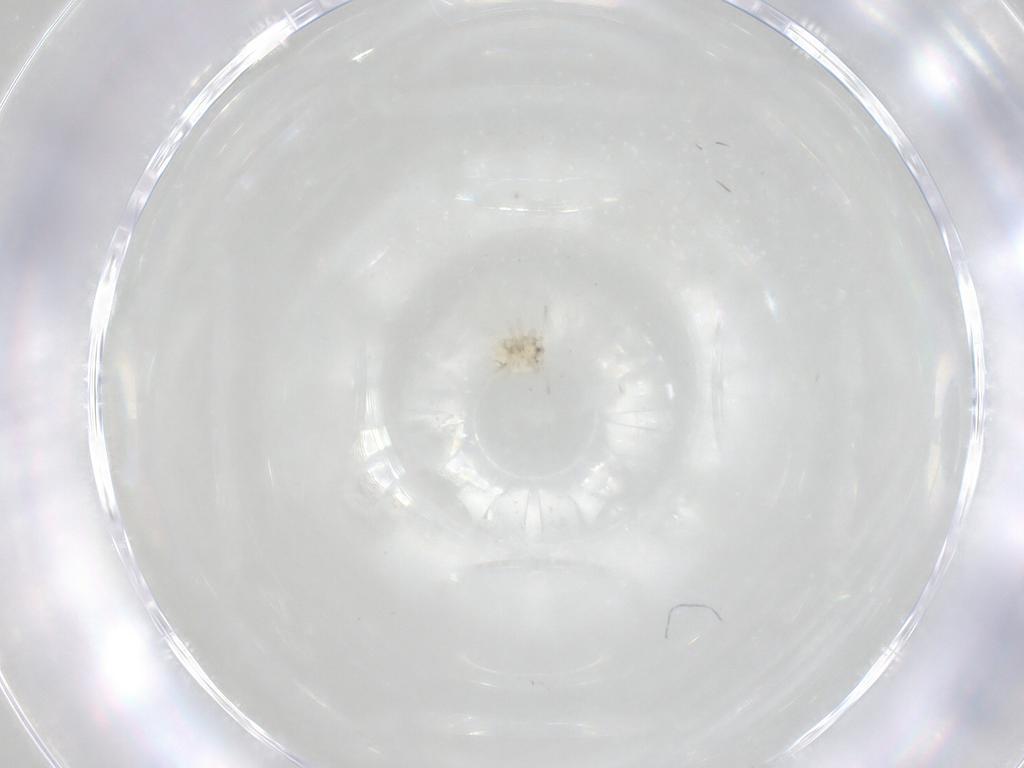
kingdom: Animalia
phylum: Arthropoda
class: Insecta
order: Neuroptera
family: Coniopterygidae
